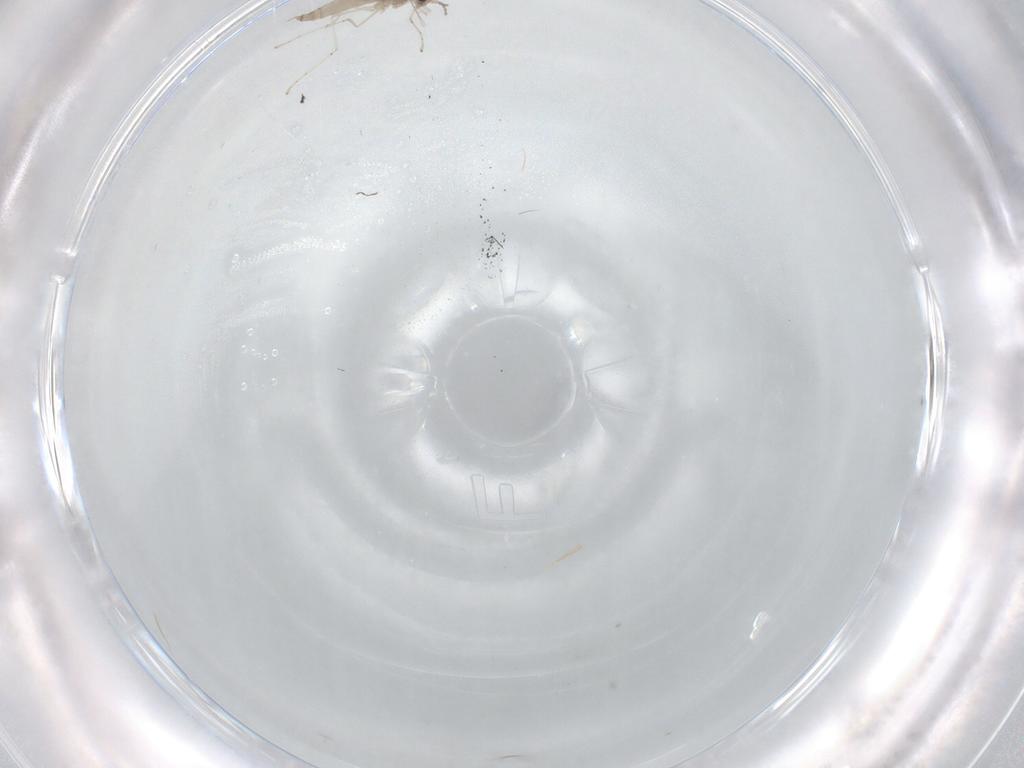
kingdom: Animalia
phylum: Arthropoda
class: Insecta
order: Diptera
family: Cecidomyiidae
